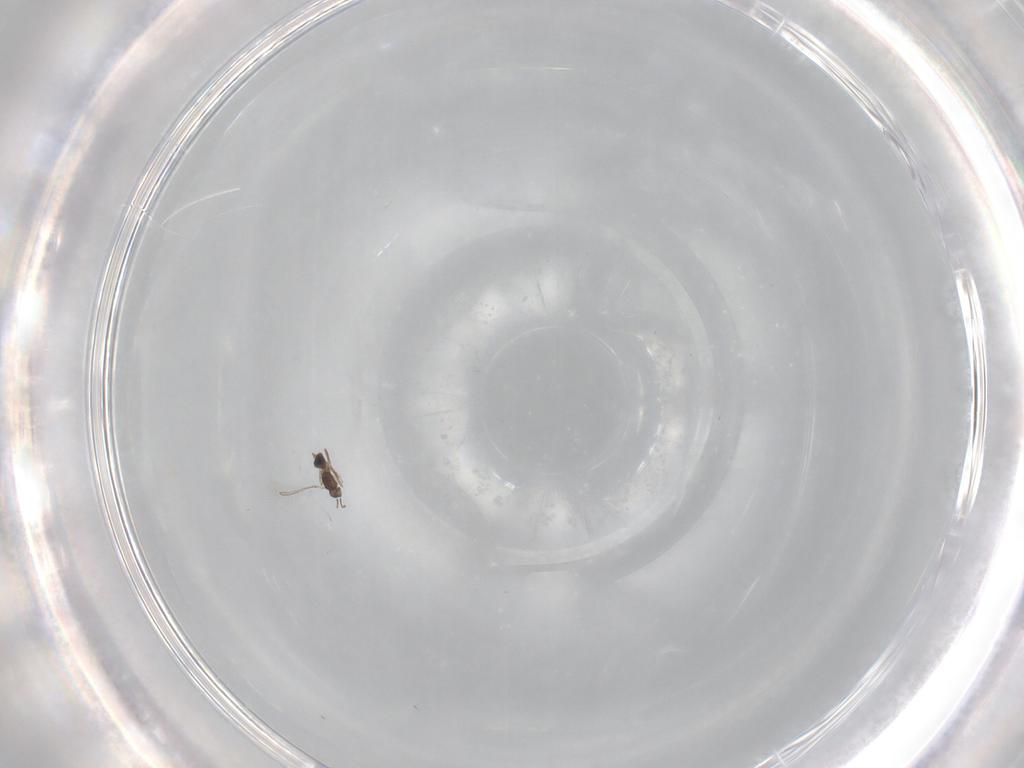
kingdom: Animalia
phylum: Arthropoda
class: Insecta
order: Hymenoptera
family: Mymaridae
